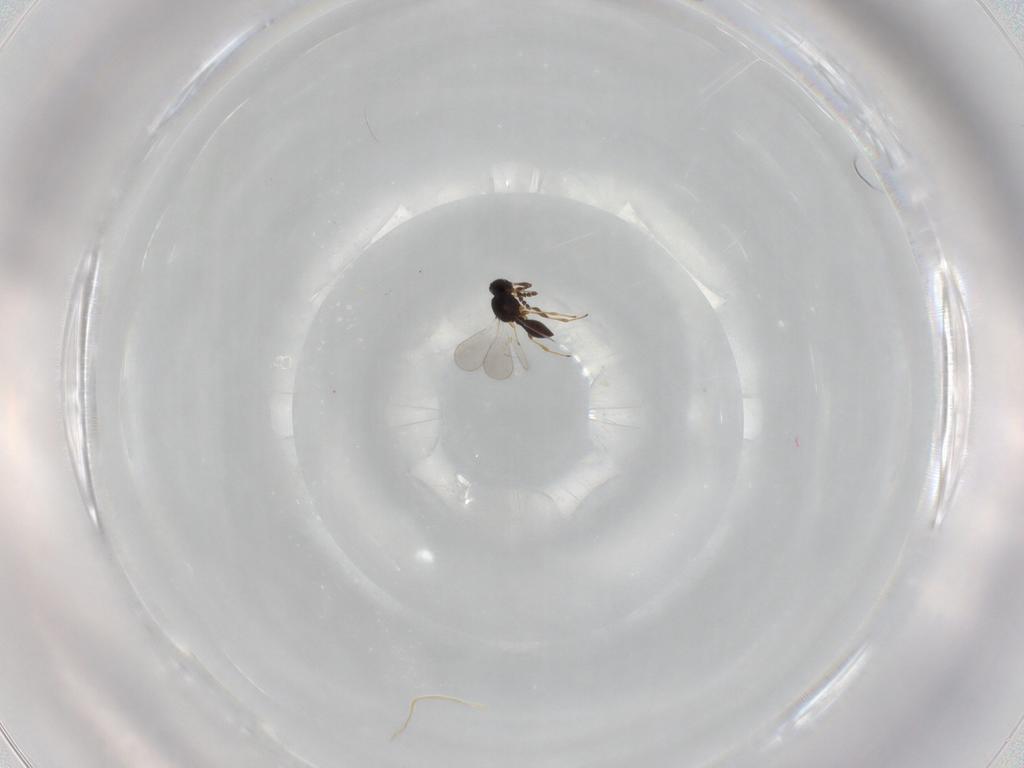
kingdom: Animalia
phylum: Arthropoda
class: Insecta
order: Hymenoptera
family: Platygastridae
